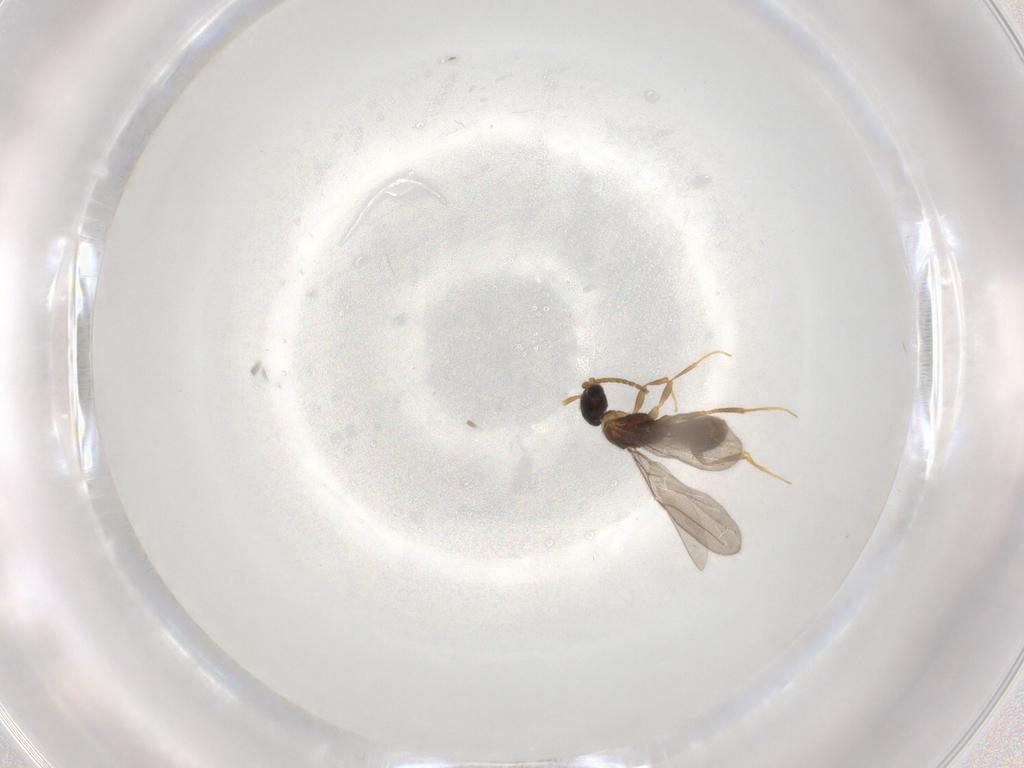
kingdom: Animalia
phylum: Arthropoda
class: Insecta
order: Hymenoptera
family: Bethylidae
